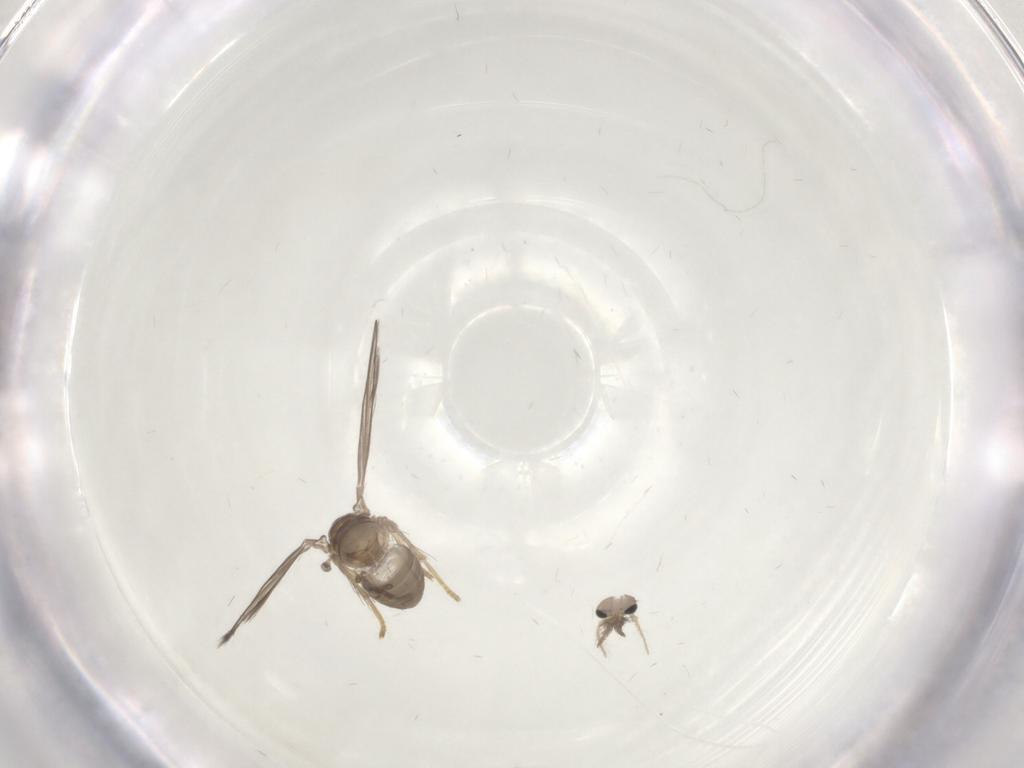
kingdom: Animalia
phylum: Arthropoda
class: Insecta
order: Diptera
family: Psychodidae
